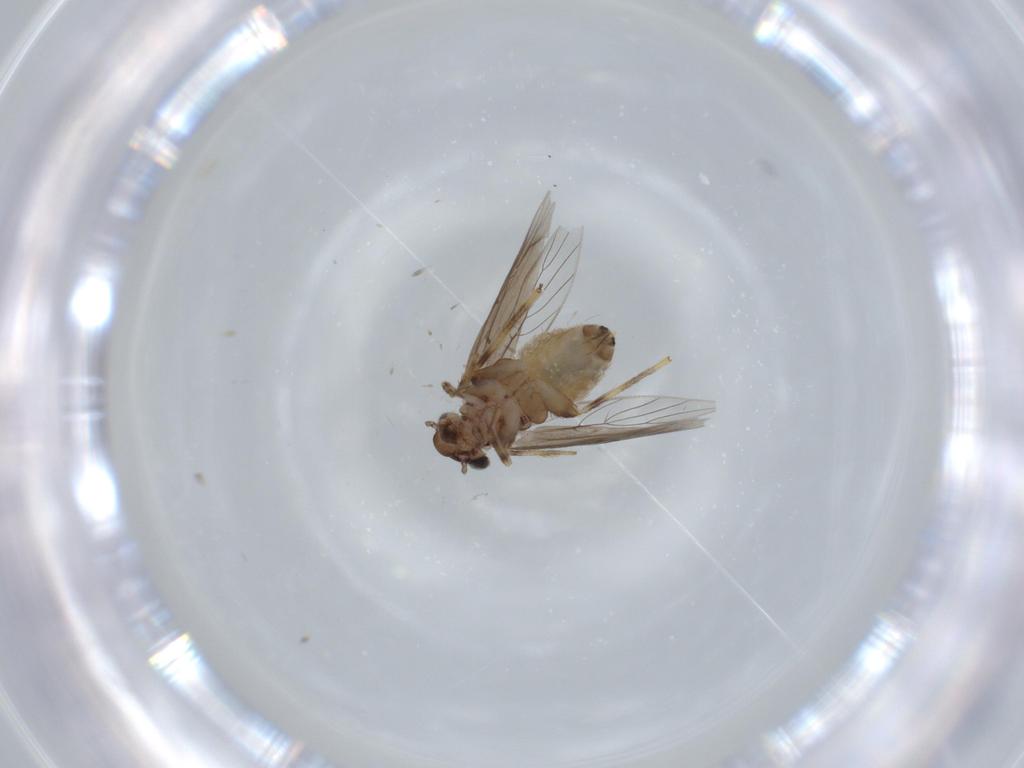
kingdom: Animalia
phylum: Arthropoda
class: Insecta
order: Psocodea
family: Lepidopsocidae
